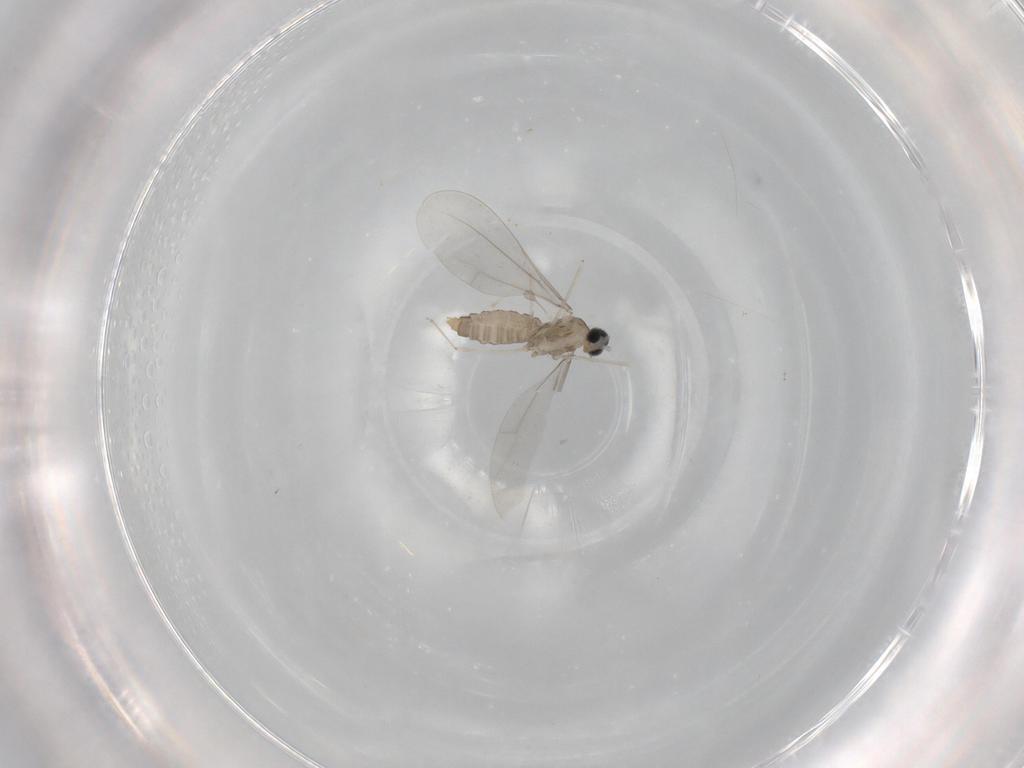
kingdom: Animalia
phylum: Arthropoda
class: Insecta
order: Diptera
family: Cecidomyiidae
